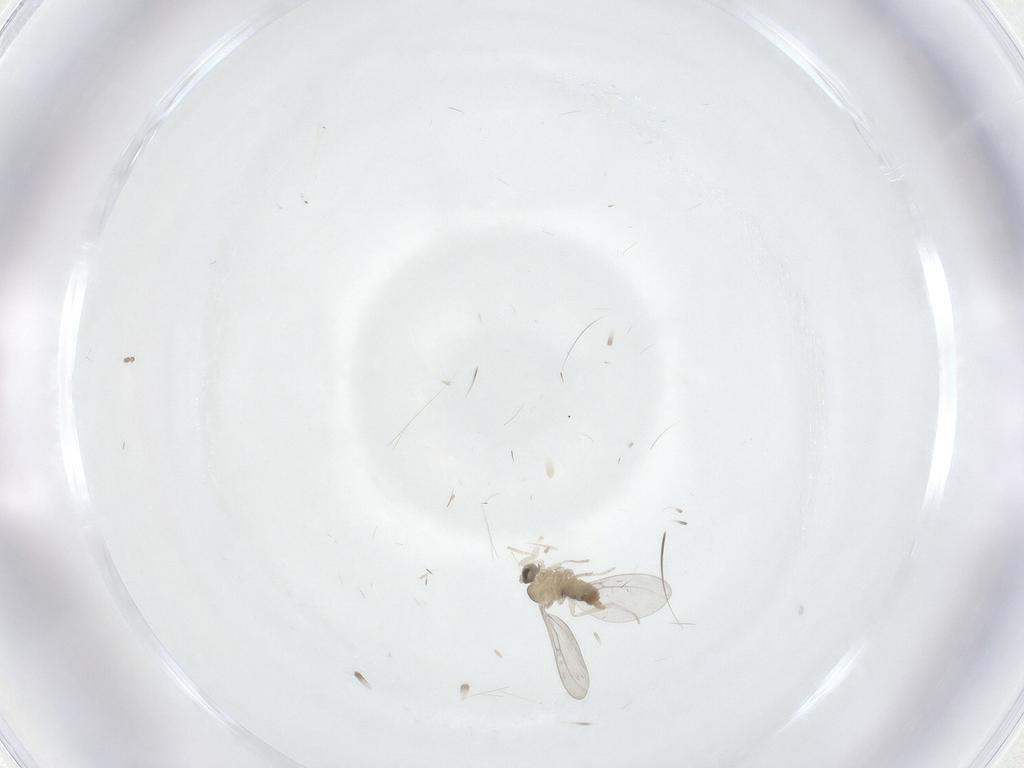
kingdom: Animalia
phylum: Arthropoda
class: Insecta
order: Diptera
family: Cecidomyiidae
